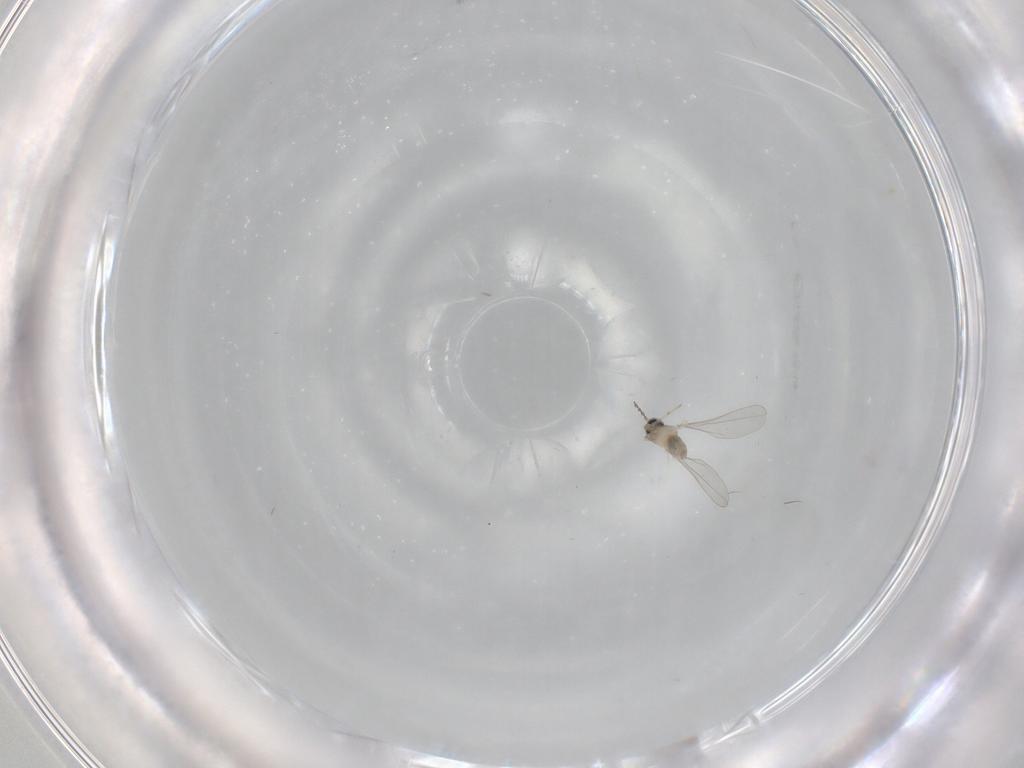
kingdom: Animalia
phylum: Arthropoda
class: Insecta
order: Diptera
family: Sciaridae
